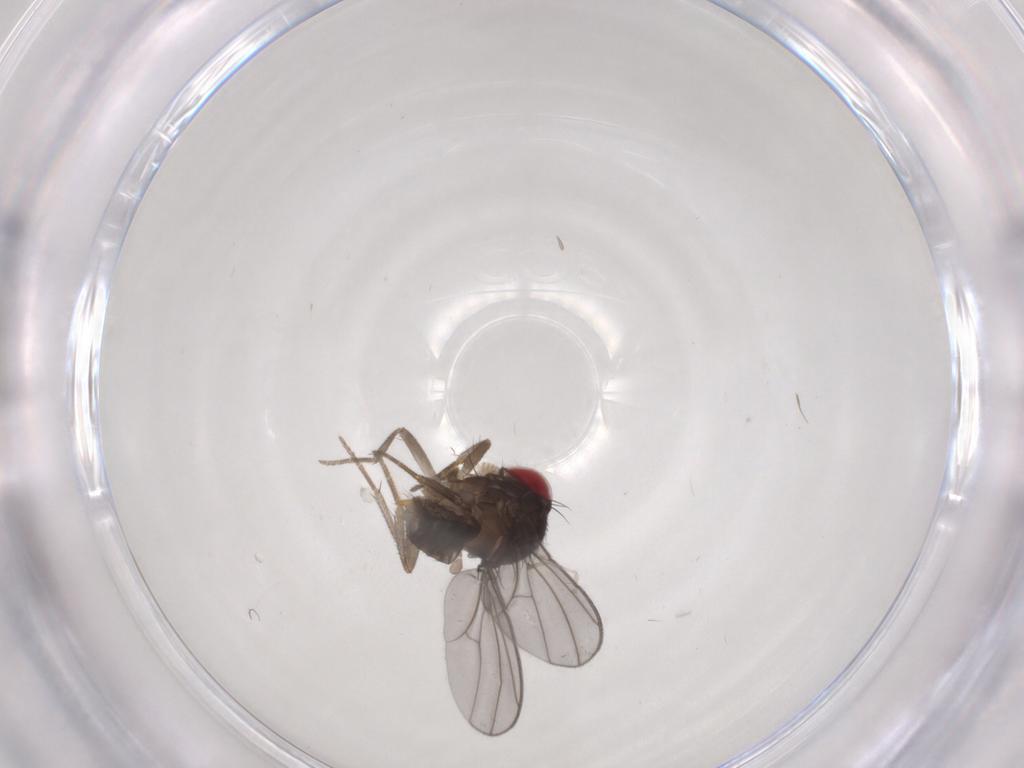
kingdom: Animalia
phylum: Arthropoda
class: Insecta
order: Diptera
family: Drosophilidae
